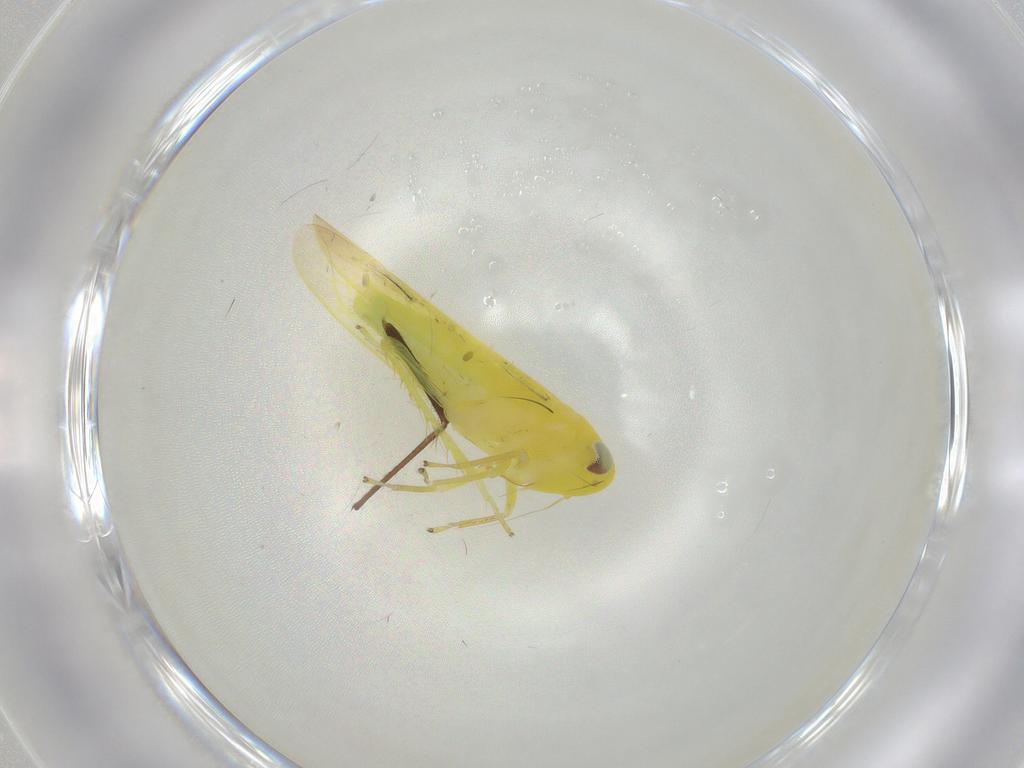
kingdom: Animalia
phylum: Arthropoda
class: Insecta
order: Hemiptera
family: Cicadellidae
